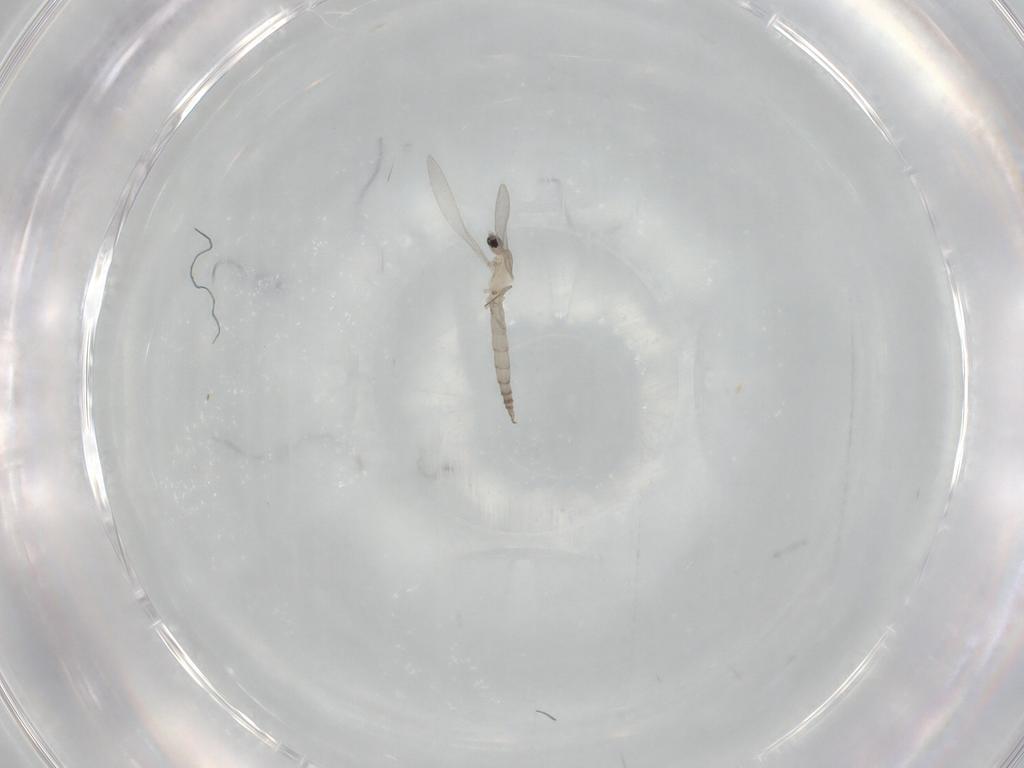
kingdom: Animalia
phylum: Arthropoda
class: Insecta
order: Diptera
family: Cecidomyiidae
